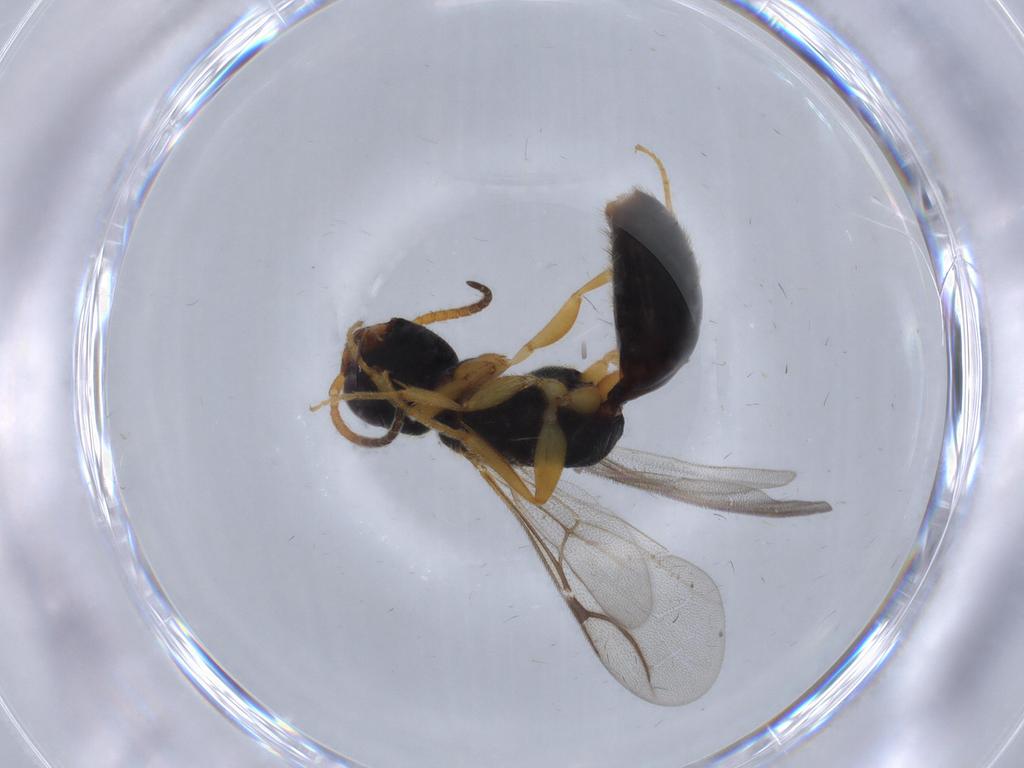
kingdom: Animalia
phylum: Arthropoda
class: Insecta
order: Hymenoptera
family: Bethylidae
